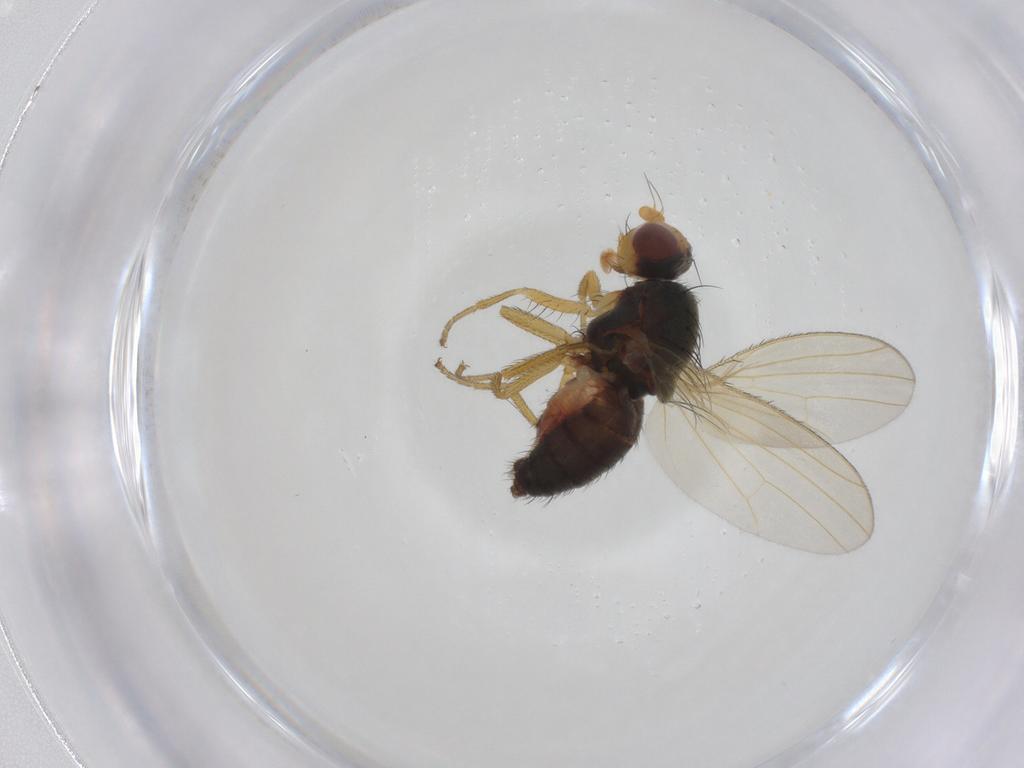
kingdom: Animalia
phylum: Arthropoda
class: Insecta
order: Diptera
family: Heleomyzidae
